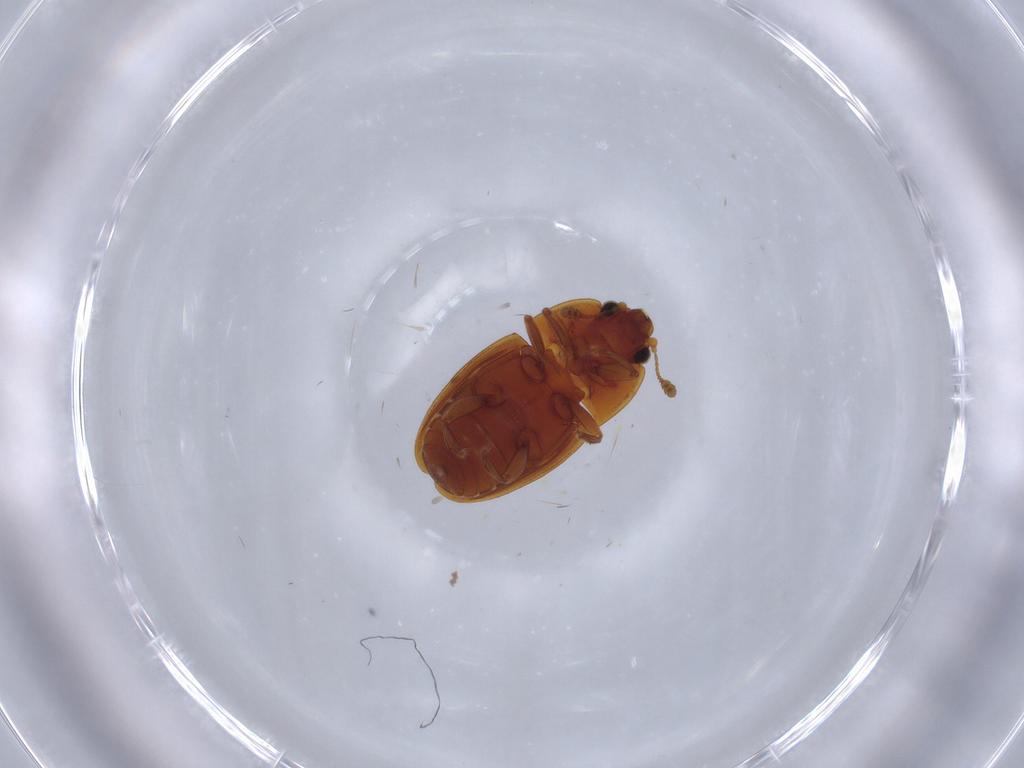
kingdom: Animalia
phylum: Arthropoda
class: Insecta
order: Coleoptera
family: Nitidulidae
